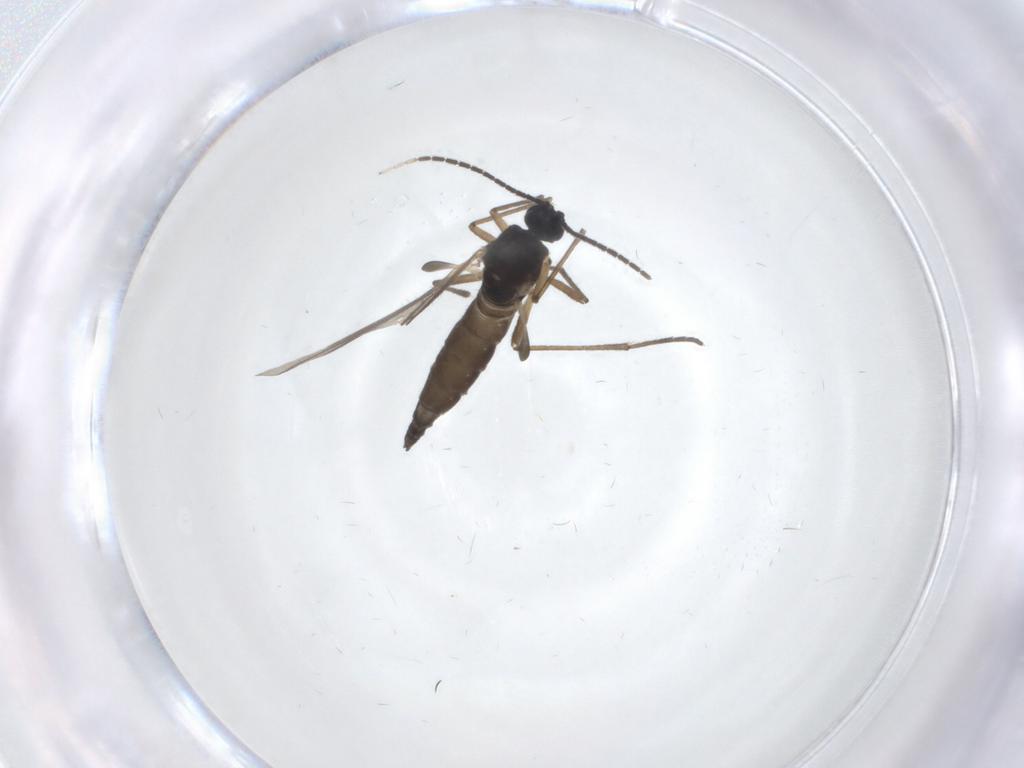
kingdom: Animalia
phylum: Arthropoda
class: Insecta
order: Diptera
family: Sciaridae
